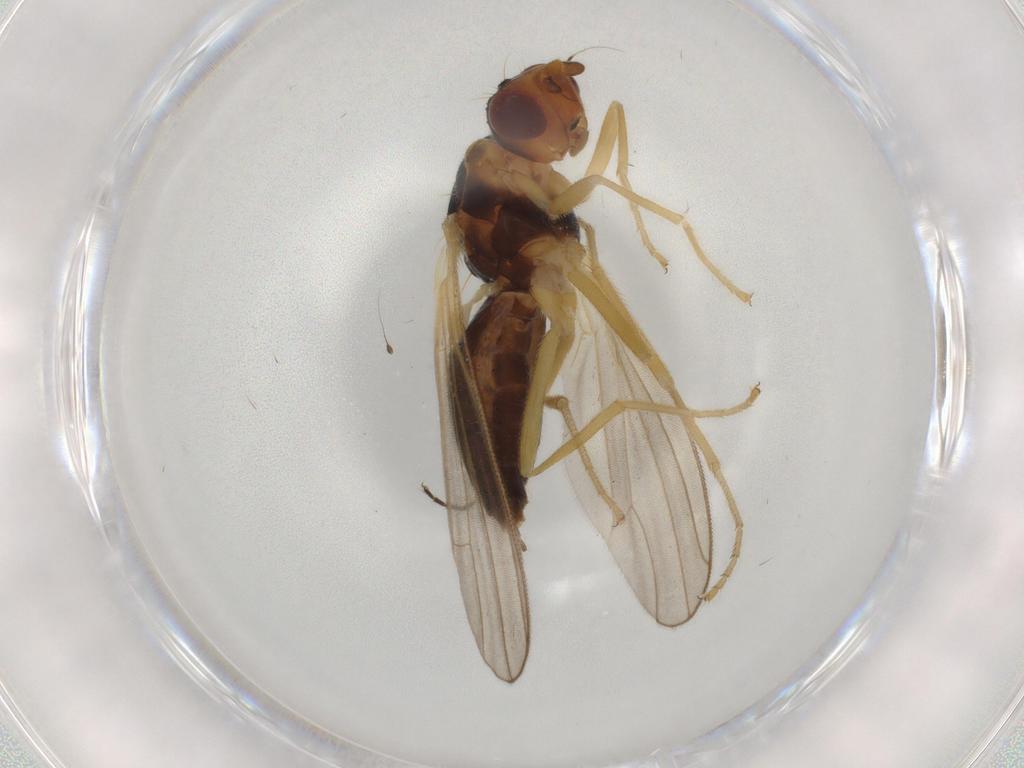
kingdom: Animalia
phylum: Arthropoda
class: Insecta
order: Diptera
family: Hybotidae
